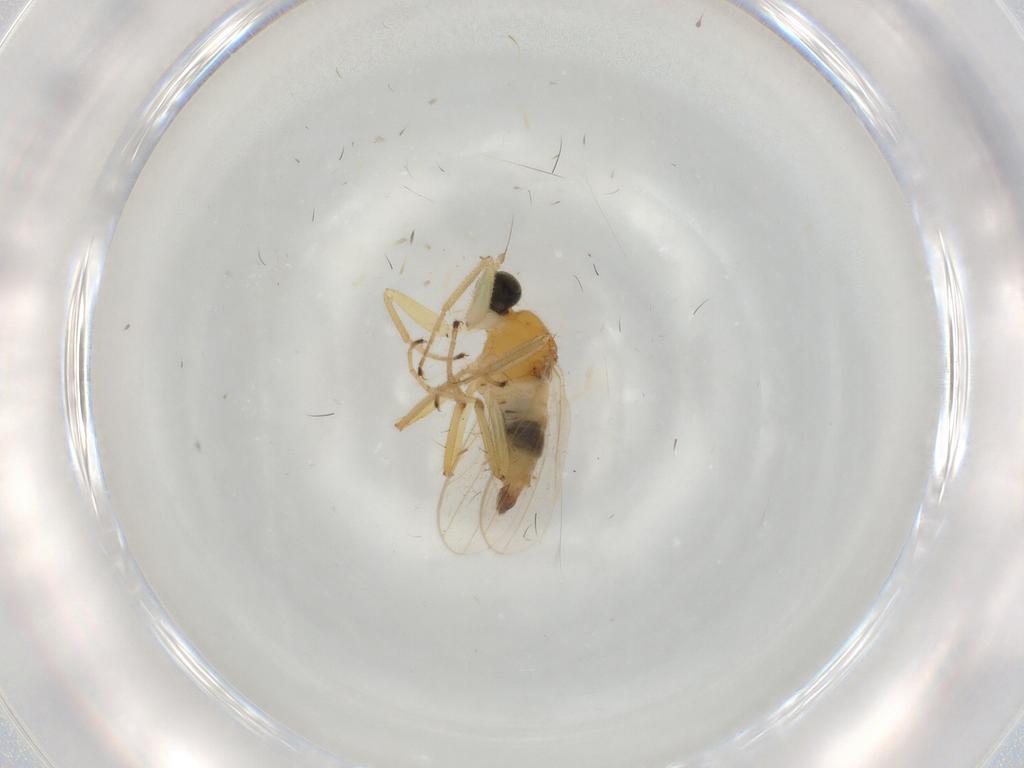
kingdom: Animalia
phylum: Arthropoda
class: Insecta
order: Diptera
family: Hybotidae
